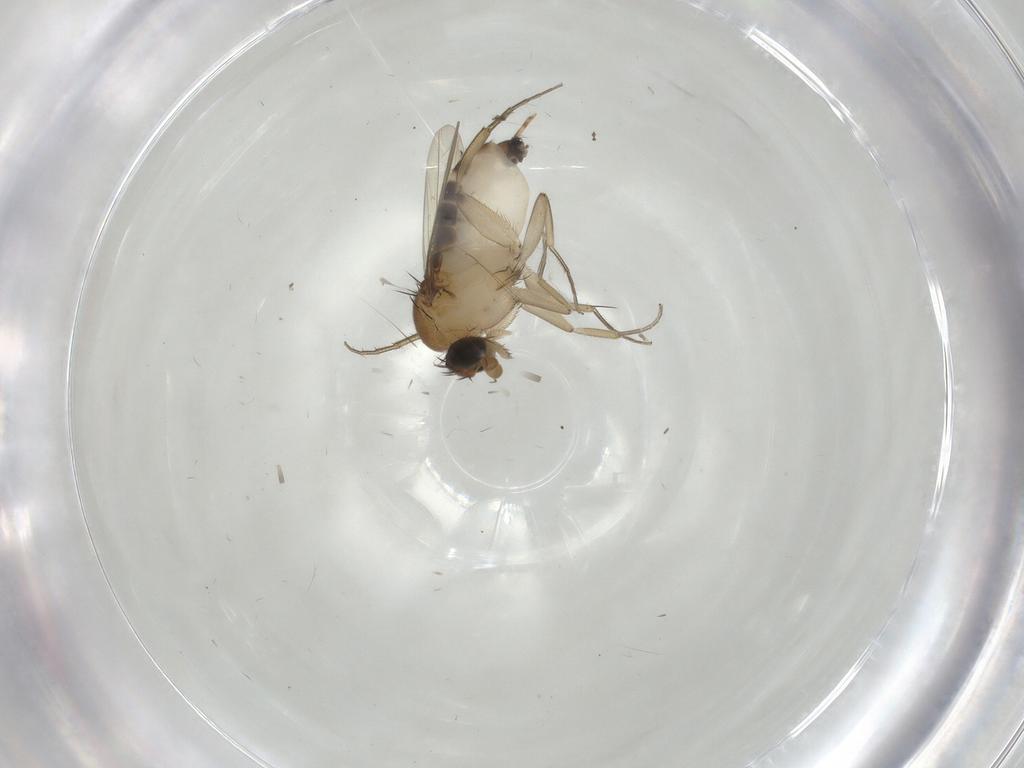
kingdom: Animalia
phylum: Arthropoda
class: Insecta
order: Diptera
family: Phoridae
